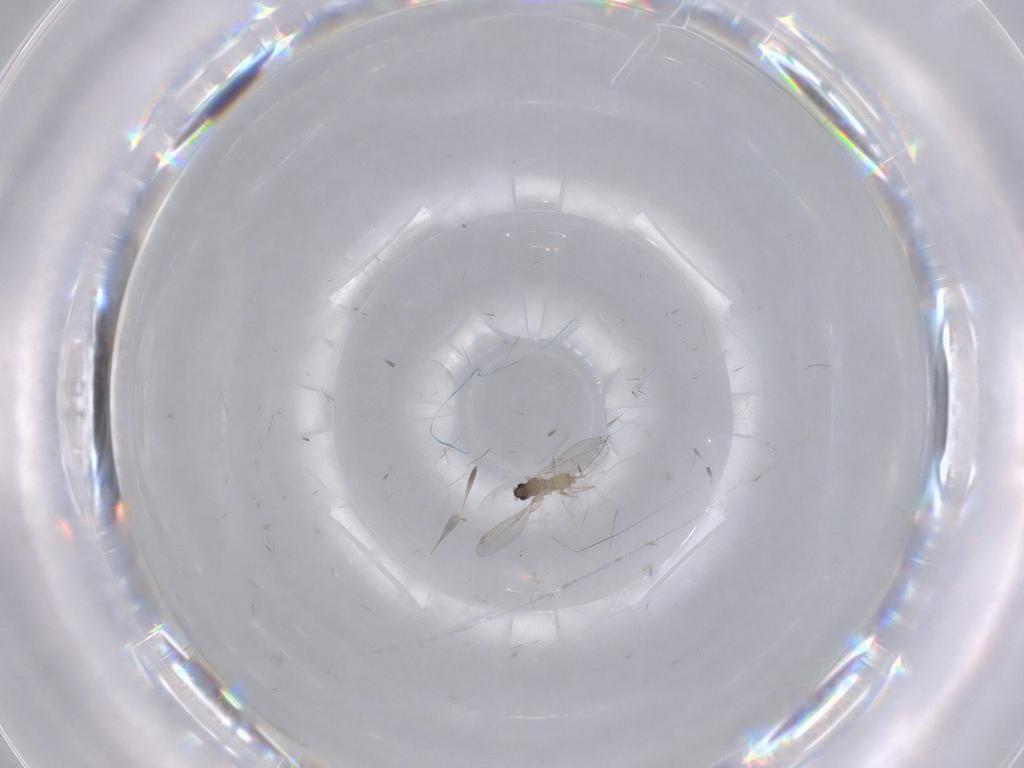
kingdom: Animalia
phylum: Arthropoda
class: Insecta
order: Diptera
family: Cecidomyiidae
